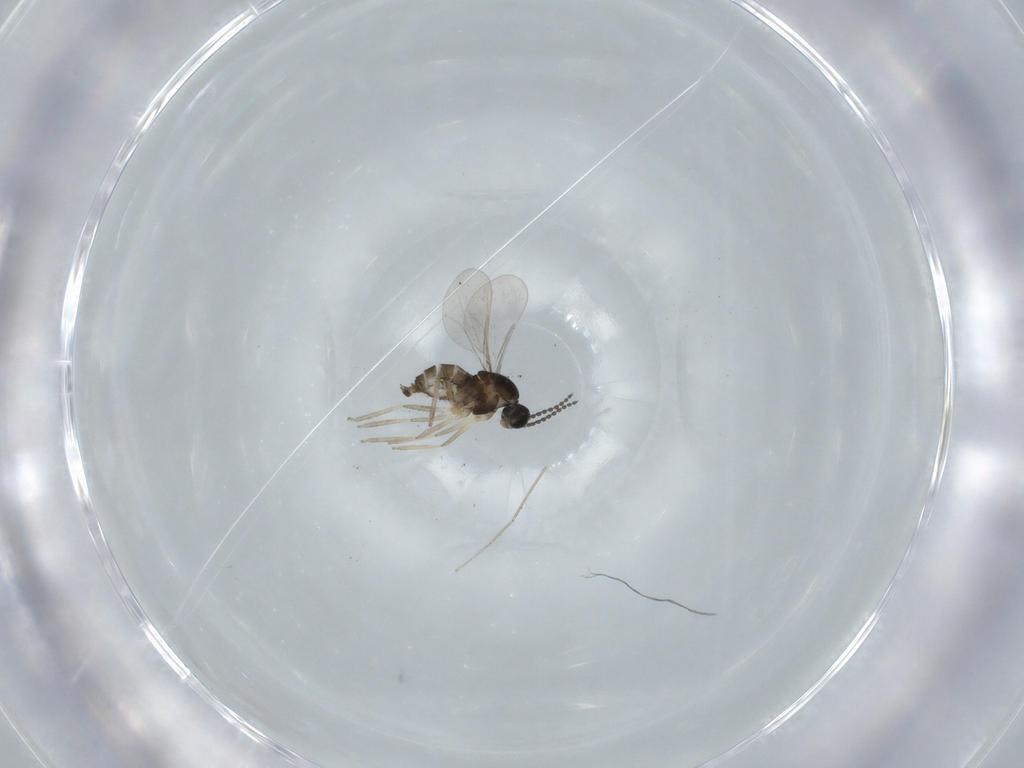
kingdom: Animalia
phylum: Arthropoda
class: Insecta
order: Diptera
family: Cecidomyiidae
